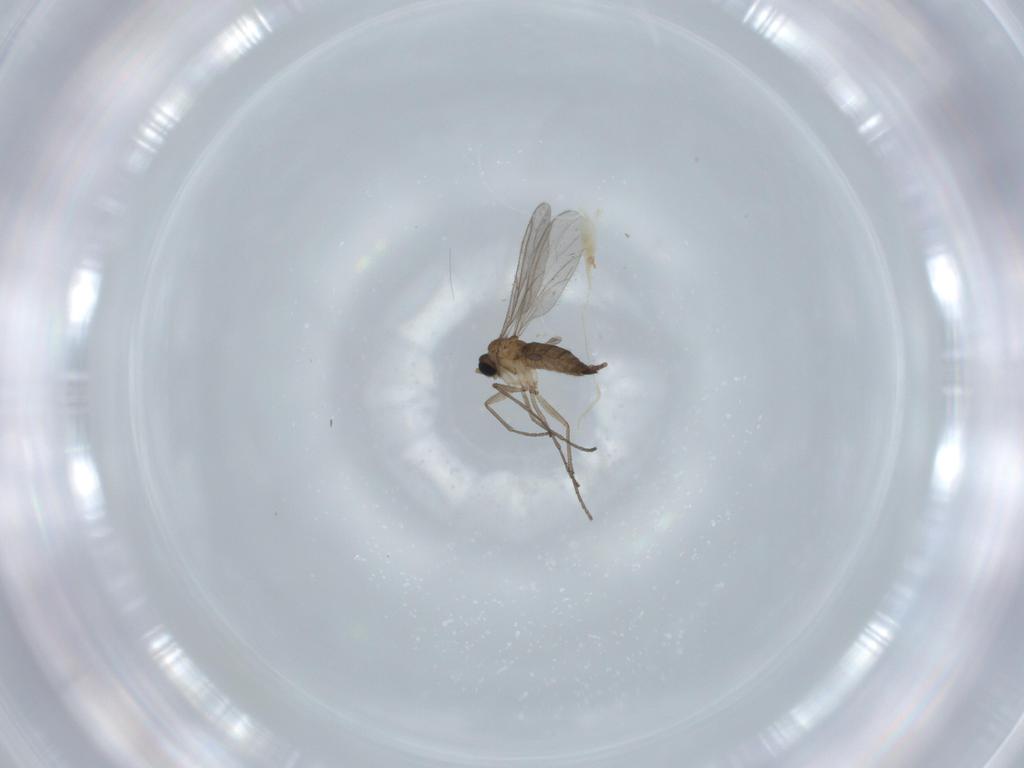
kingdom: Animalia
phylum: Arthropoda
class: Insecta
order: Diptera
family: Sciaridae
